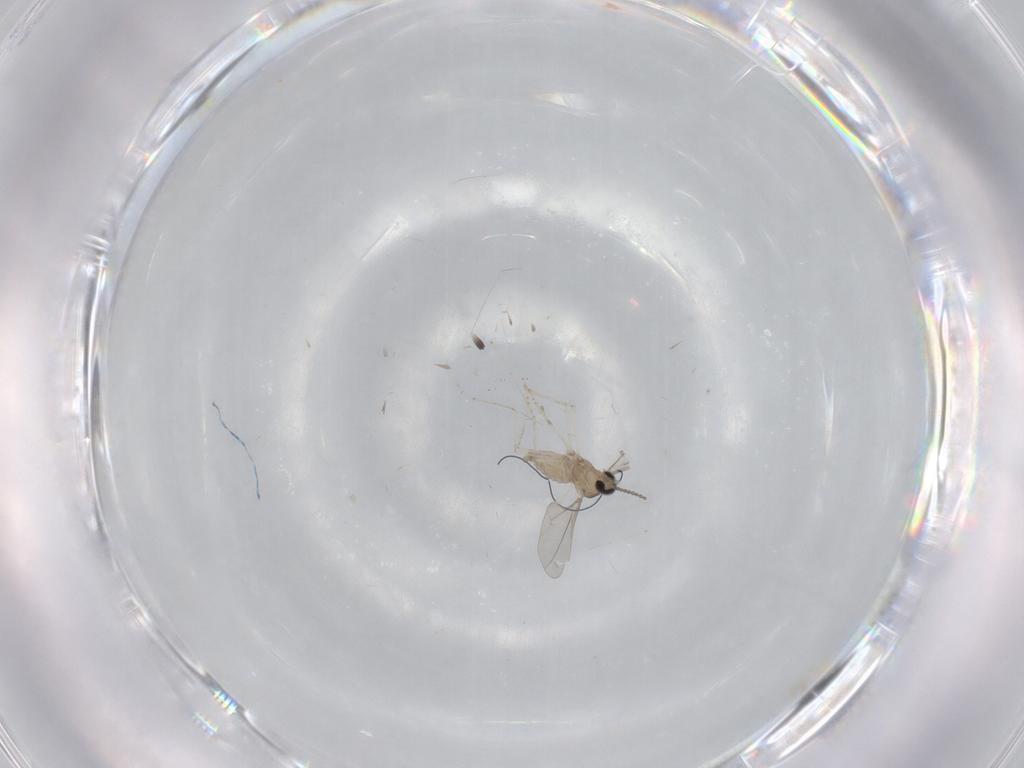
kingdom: Animalia
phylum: Arthropoda
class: Insecta
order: Diptera
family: Cecidomyiidae
